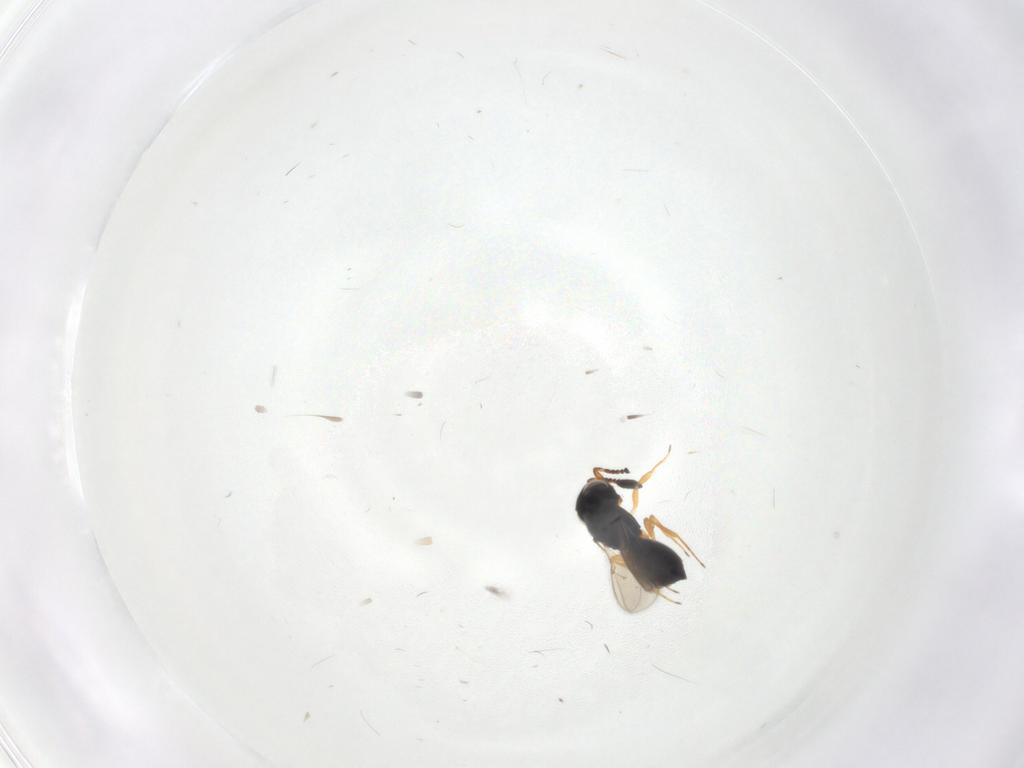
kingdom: Animalia
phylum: Arthropoda
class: Insecta
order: Hymenoptera
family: Scelionidae
